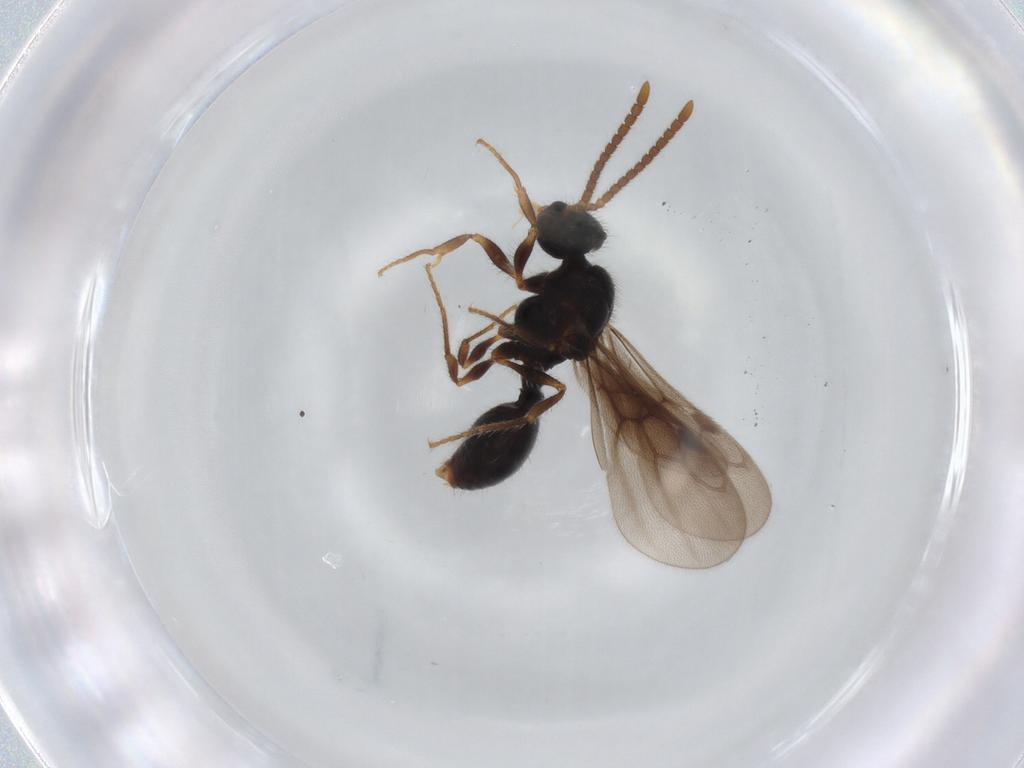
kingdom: Animalia
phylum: Arthropoda
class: Insecta
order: Hymenoptera
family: Formicidae
